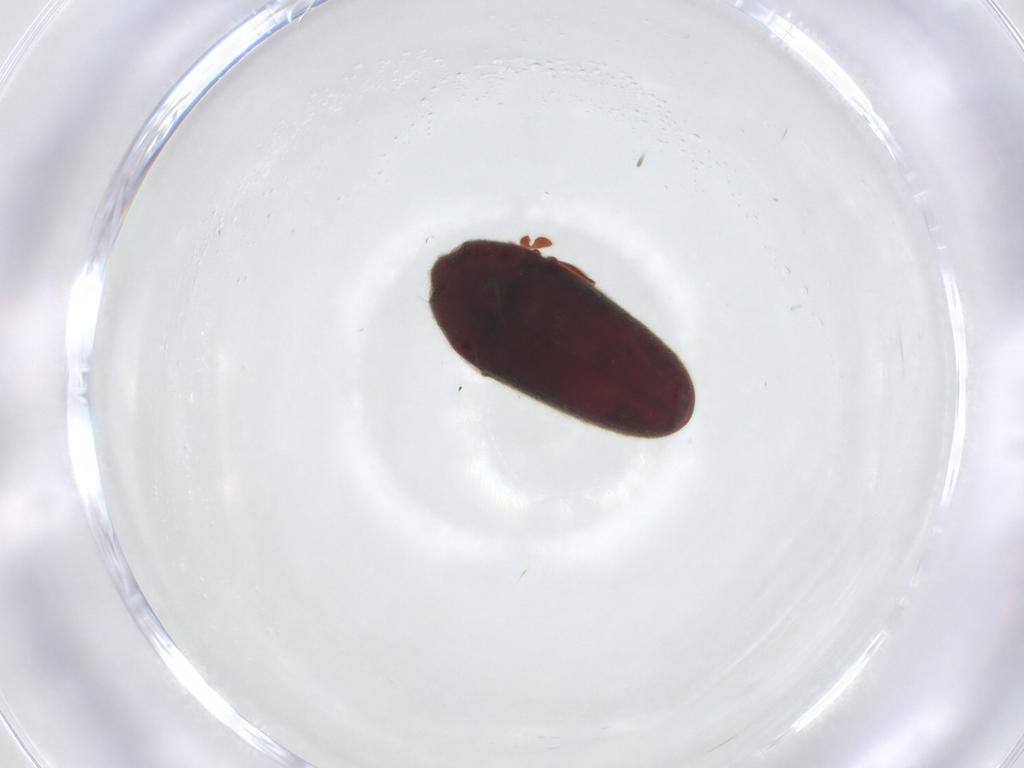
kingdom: Animalia
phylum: Arthropoda
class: Insecta
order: Coleoptera
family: Throscidae
